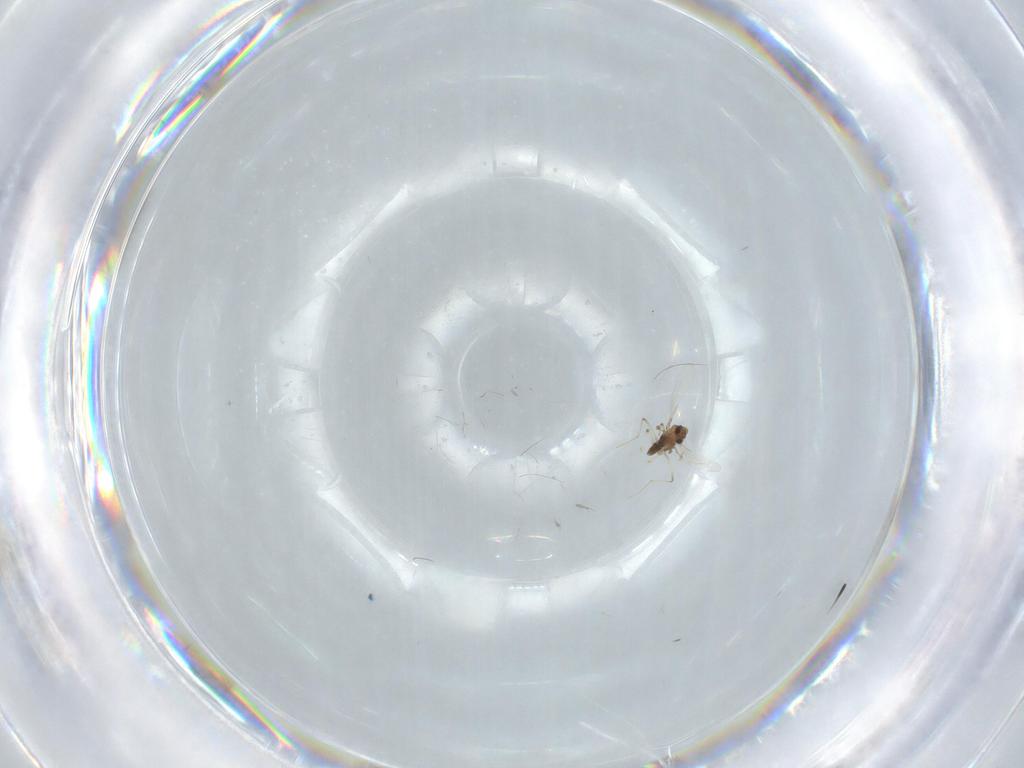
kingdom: Animalia
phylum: Arthropoda
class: Insecta
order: Diptera
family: Chironomidae
